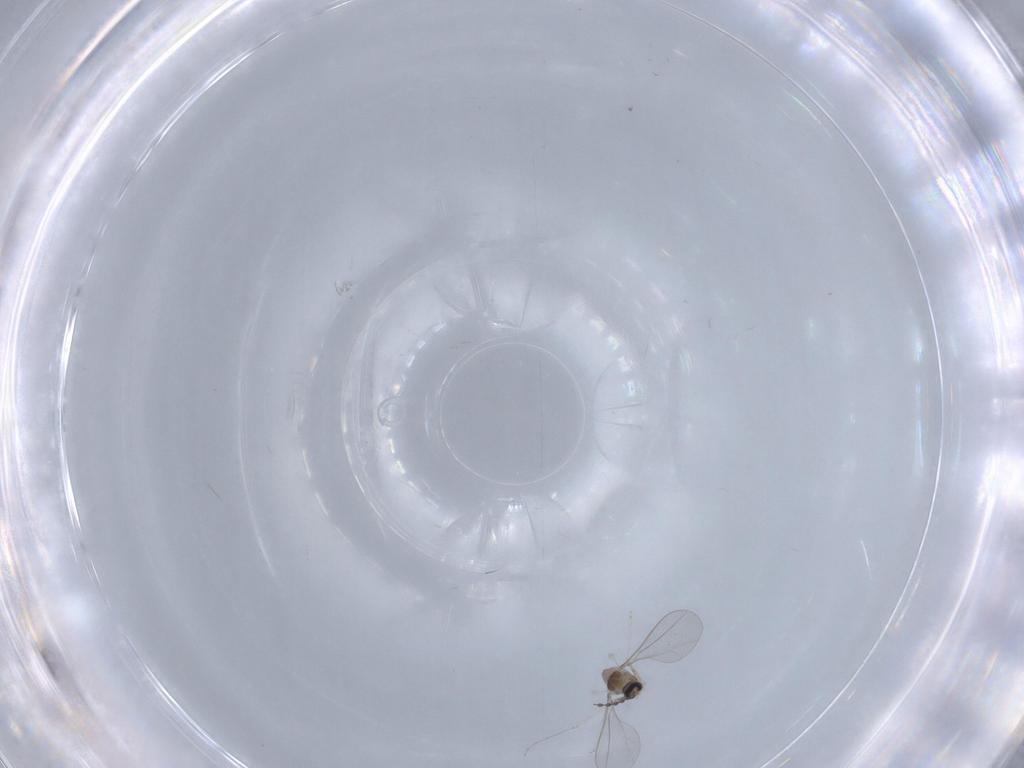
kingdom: Animalia
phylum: Arthropoda
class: Insecta
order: Diptera
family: Cecidomyiidae
